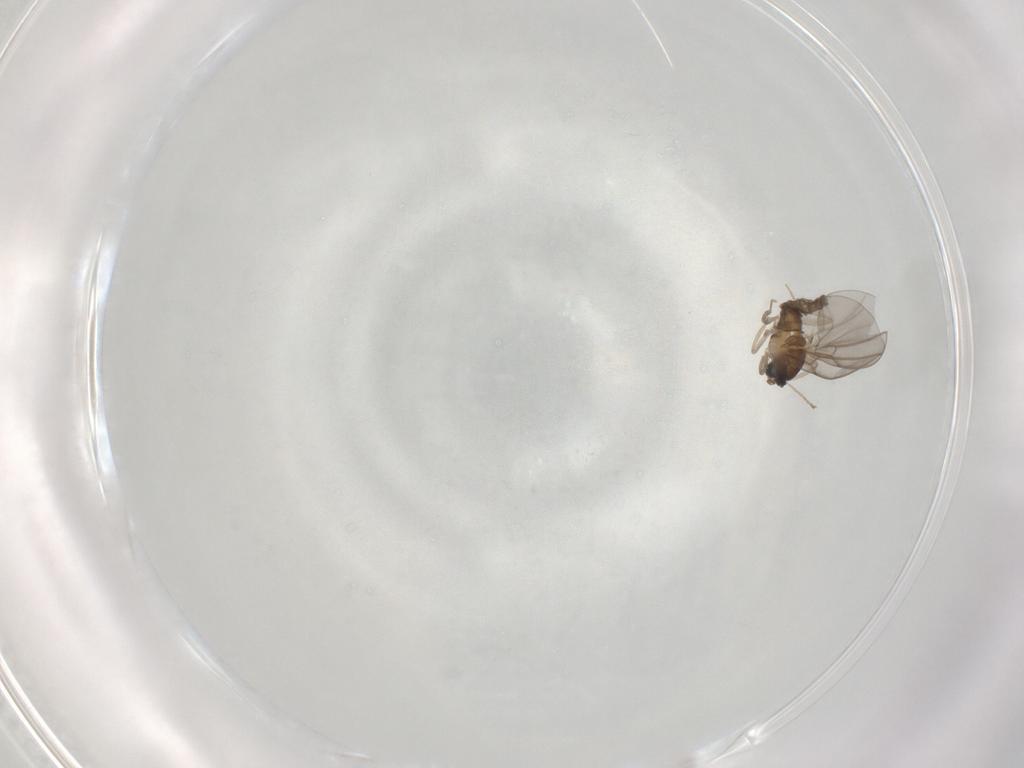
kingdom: Animalia
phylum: Arthropoda
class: Insecta
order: Diptera
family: Cecidomyiidae
